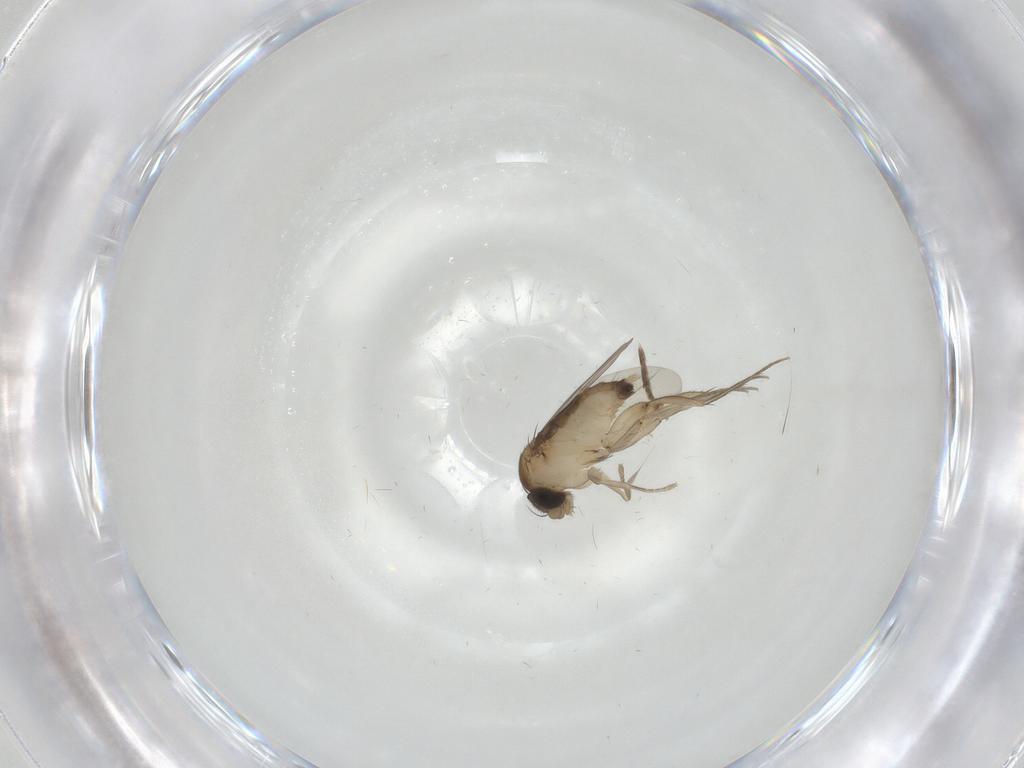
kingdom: Animalia
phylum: Arthropoda
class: Insecta
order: Diptera
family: Phoridae
